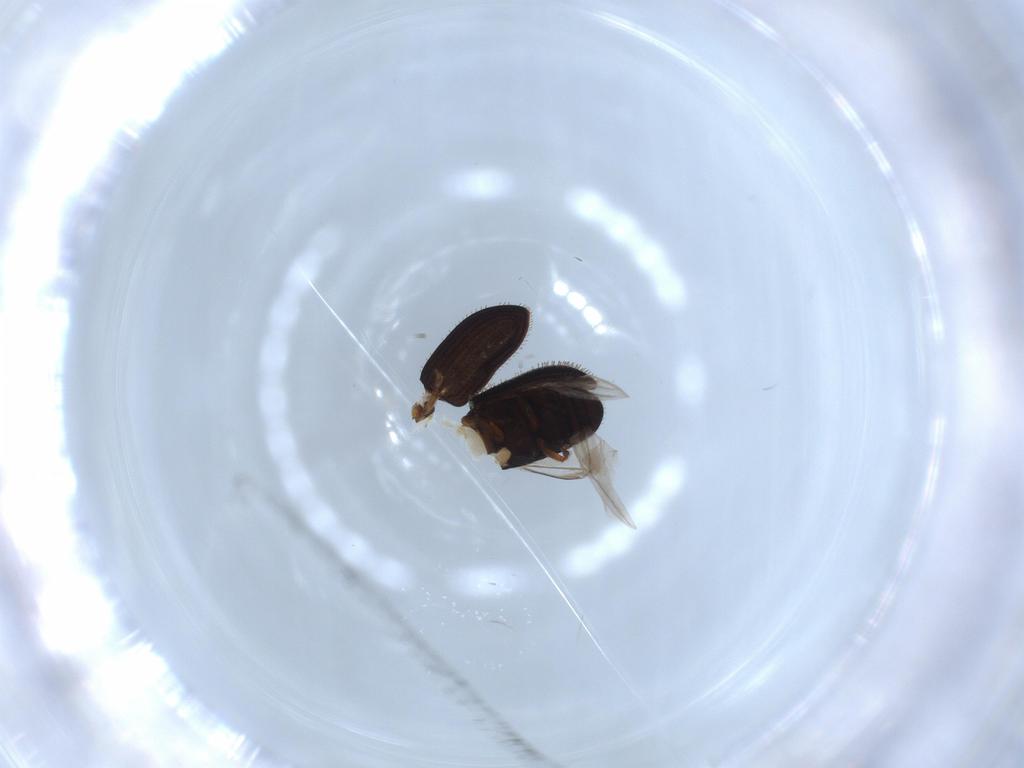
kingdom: Animalia
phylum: Arthropoda
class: Insecta
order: Coleoptera
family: Curculionidae
